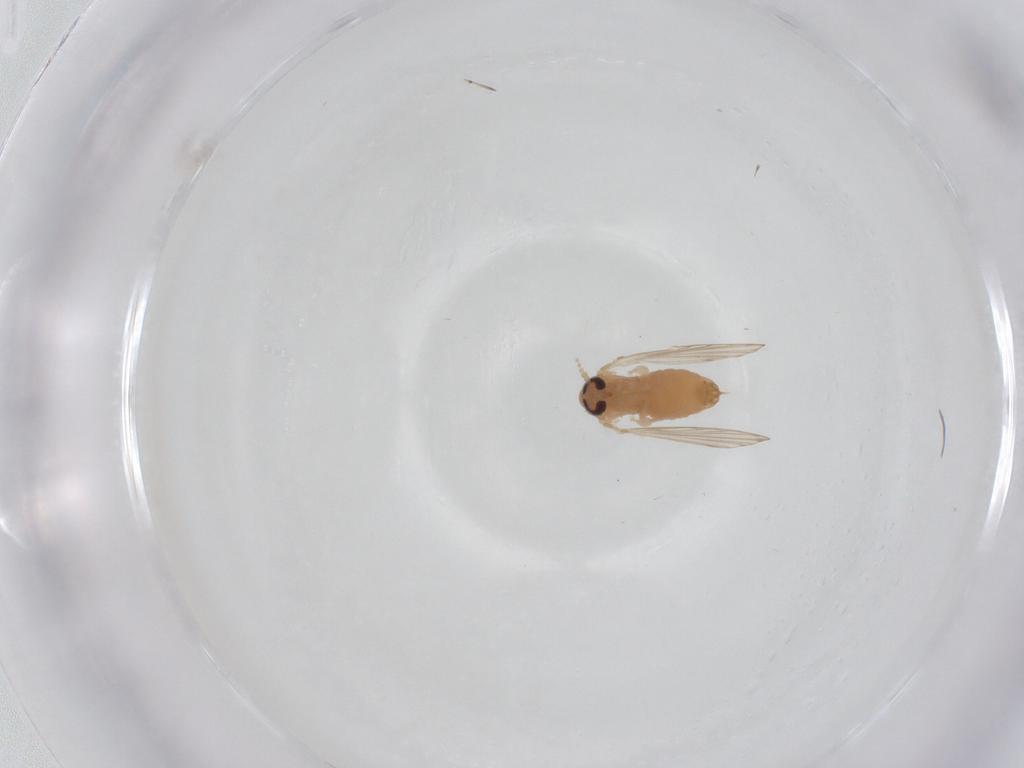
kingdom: Animalia
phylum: Arthropoda
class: Insecta
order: Diptera
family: Psychodidae
